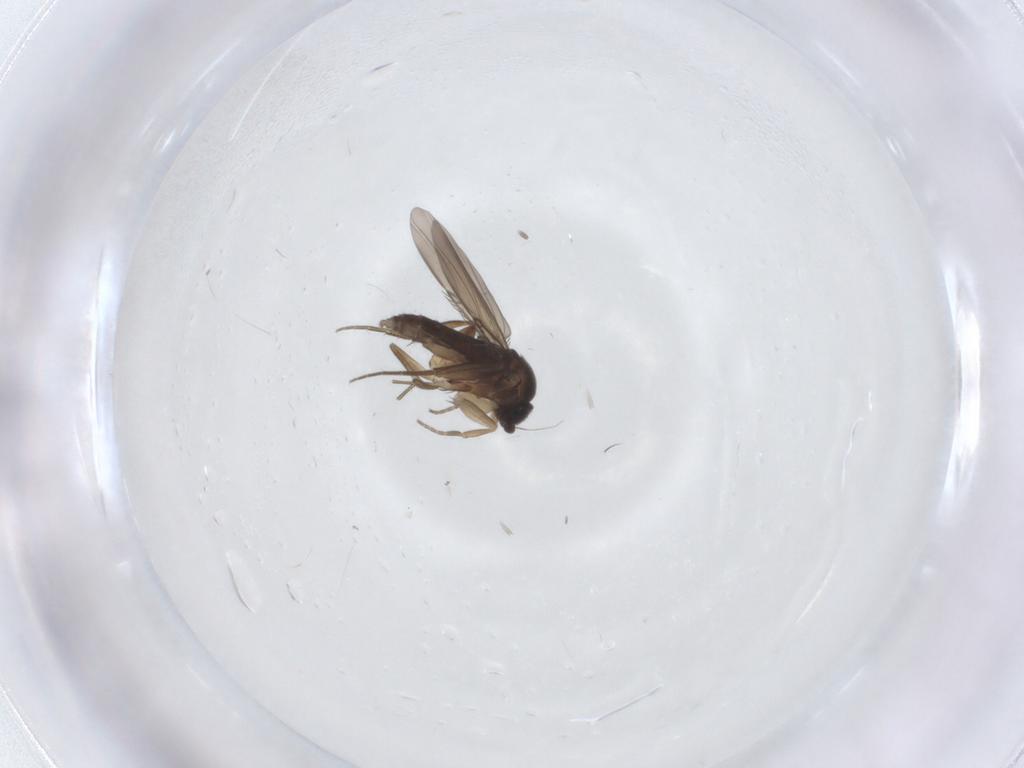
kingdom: Animalia
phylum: Arthropoda
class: Insecta
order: Diptera
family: Phoridae
